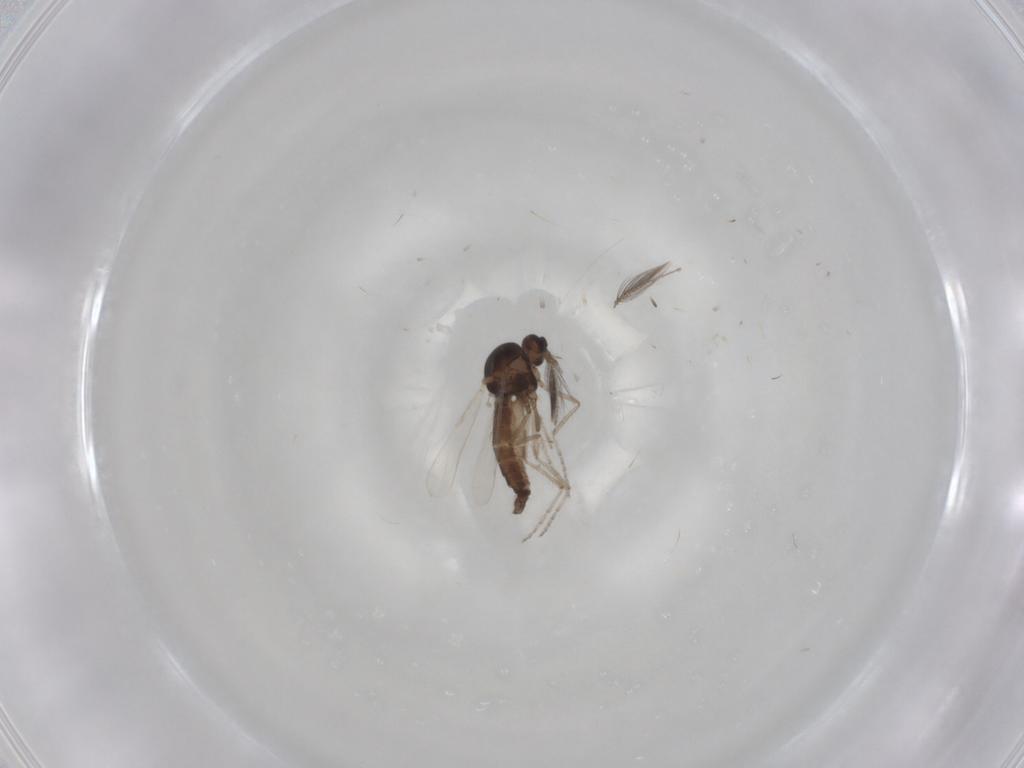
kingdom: Animalia
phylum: Arthropoda
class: Insecta
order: Diptera
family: Ceratopogonidae
